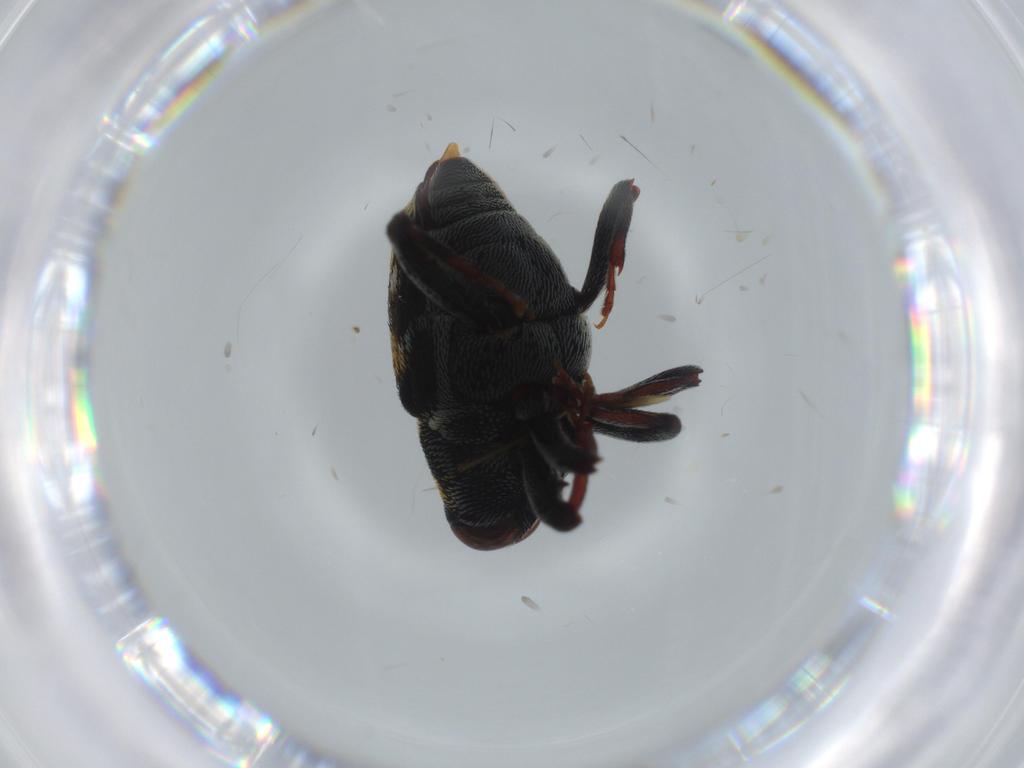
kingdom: Animalia
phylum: Arthropoda
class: Insecta
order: Coleoptera
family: Curculionidae
